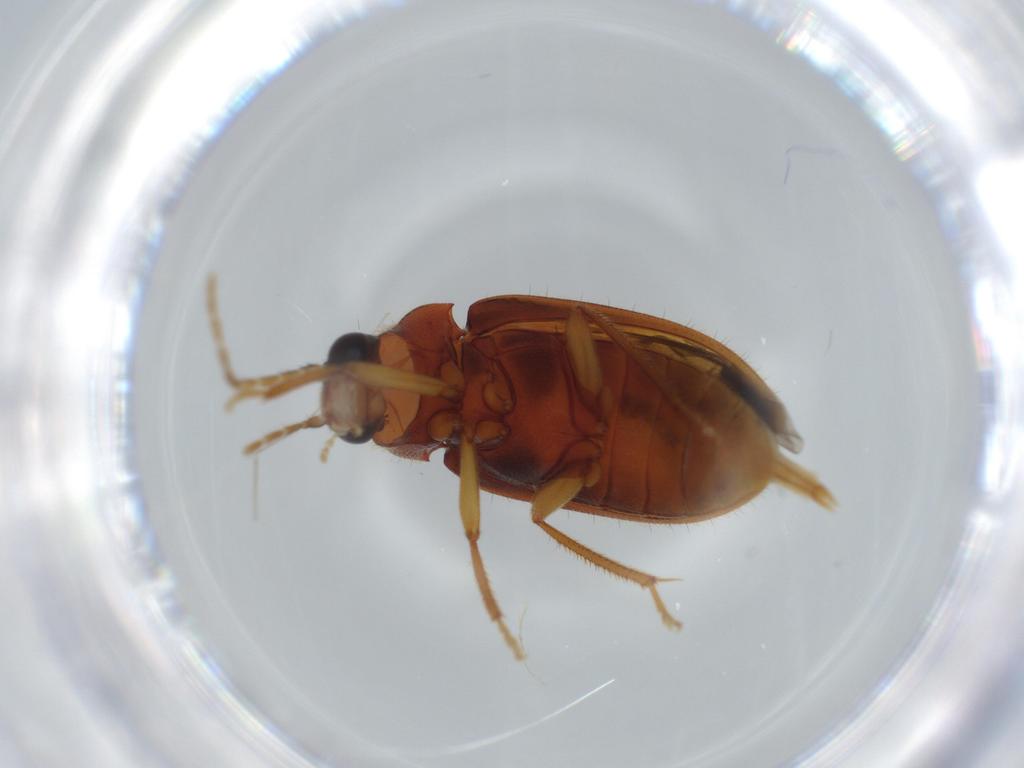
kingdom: Animalia
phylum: Arthropoda
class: Insecta
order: Coleoptera
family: Ptilodactylidae
